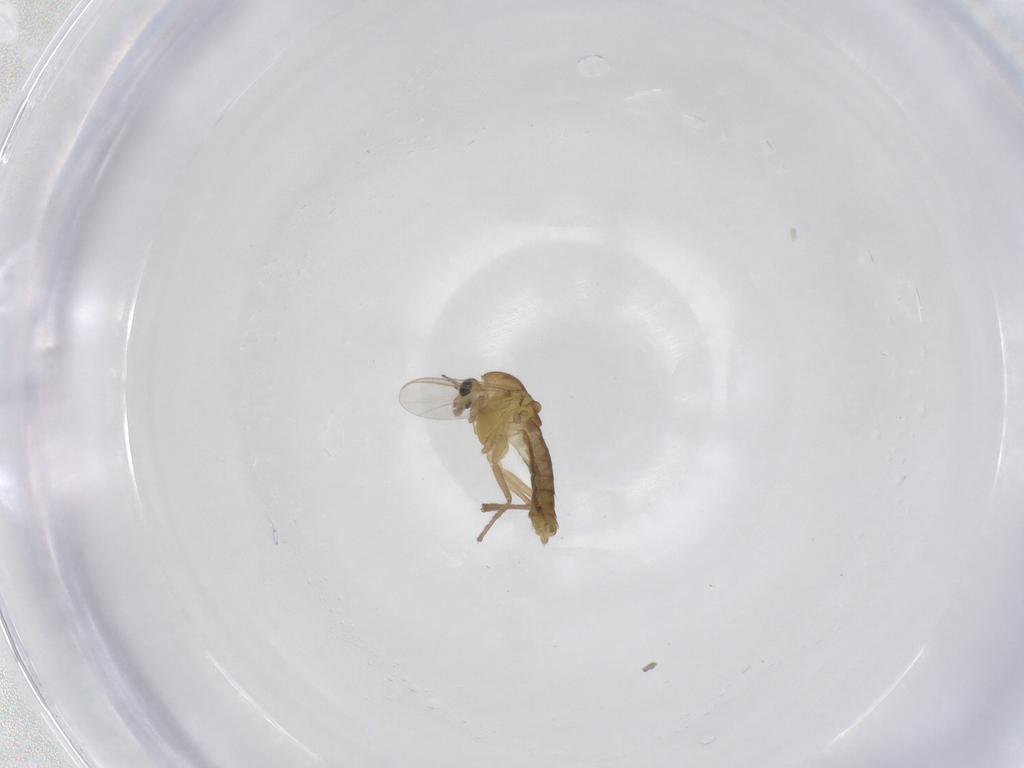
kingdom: Animalia
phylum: Arthropoda
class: Insecta
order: Diptera
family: Chironomidae
